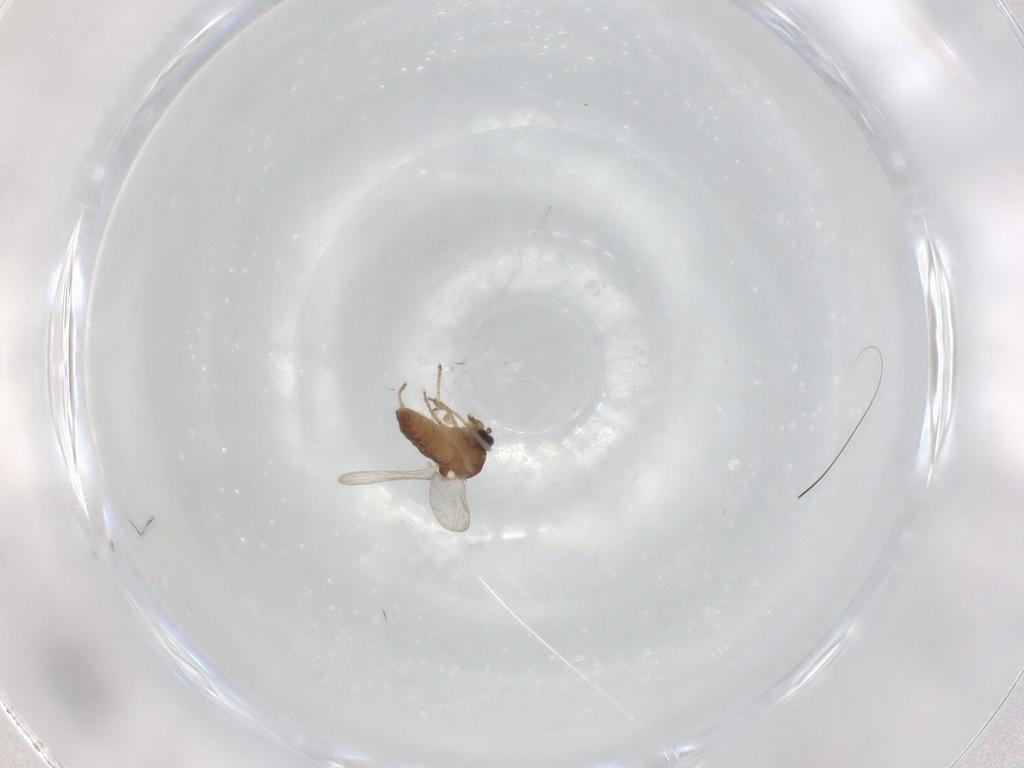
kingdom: Animalia
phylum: Arthropoda
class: Insecta
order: Diptera
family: Ceratopogonidae
